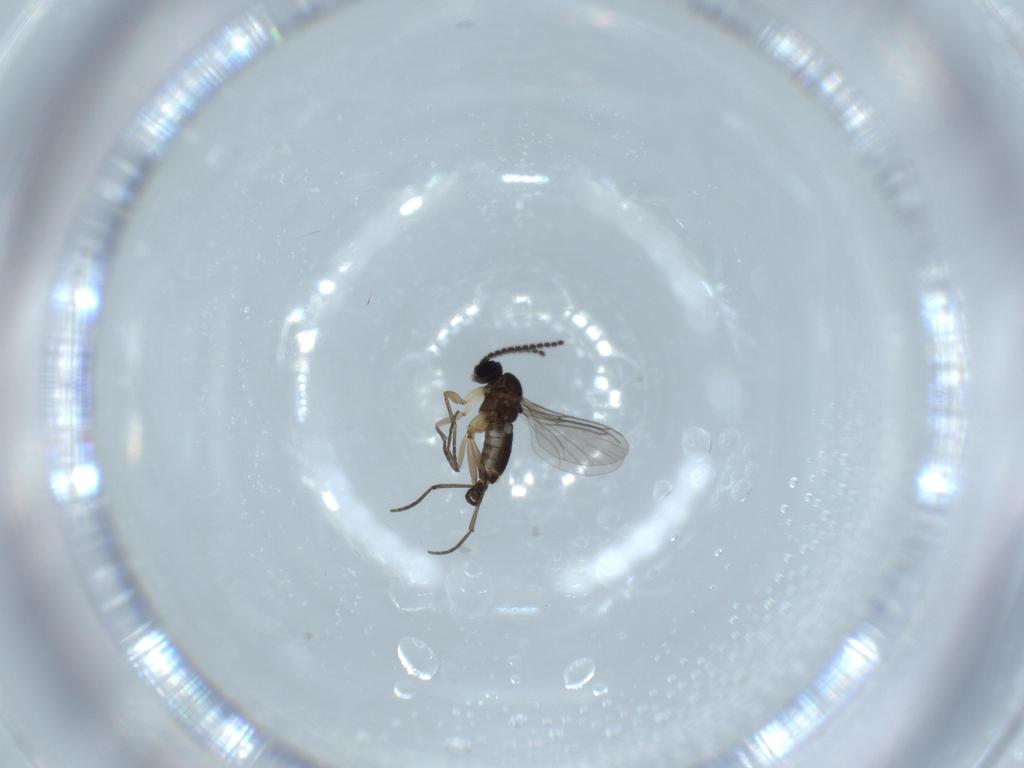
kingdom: Animalia
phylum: Arthropoda
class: Insecta
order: Diptera
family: Sciaridae
